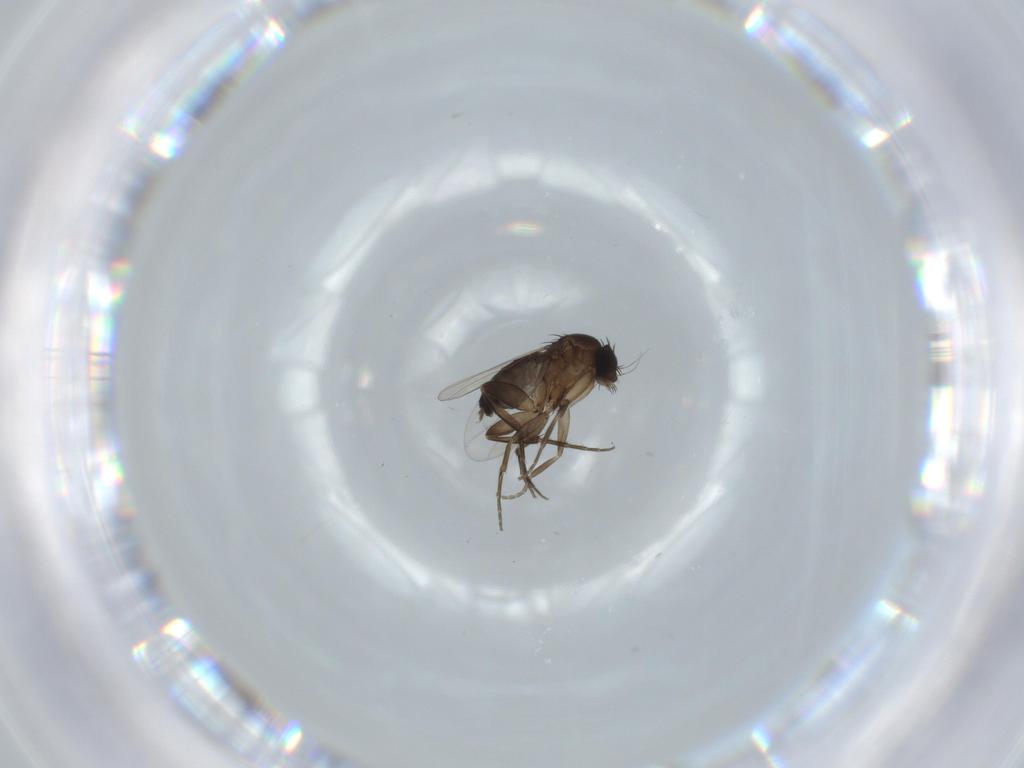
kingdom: Animalia
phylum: Arthropoda
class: Insecta
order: Diptera
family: Phoridae
